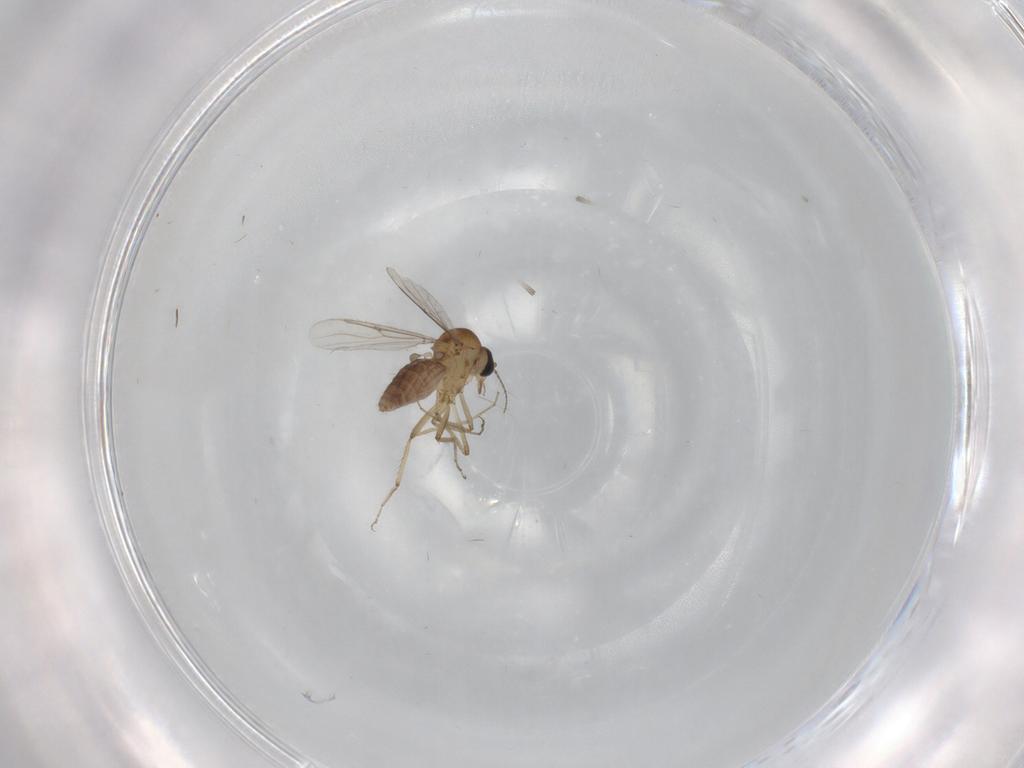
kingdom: Animalia
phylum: Arthropoda
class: Insecta
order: Diptera
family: Ceratopogonidae
